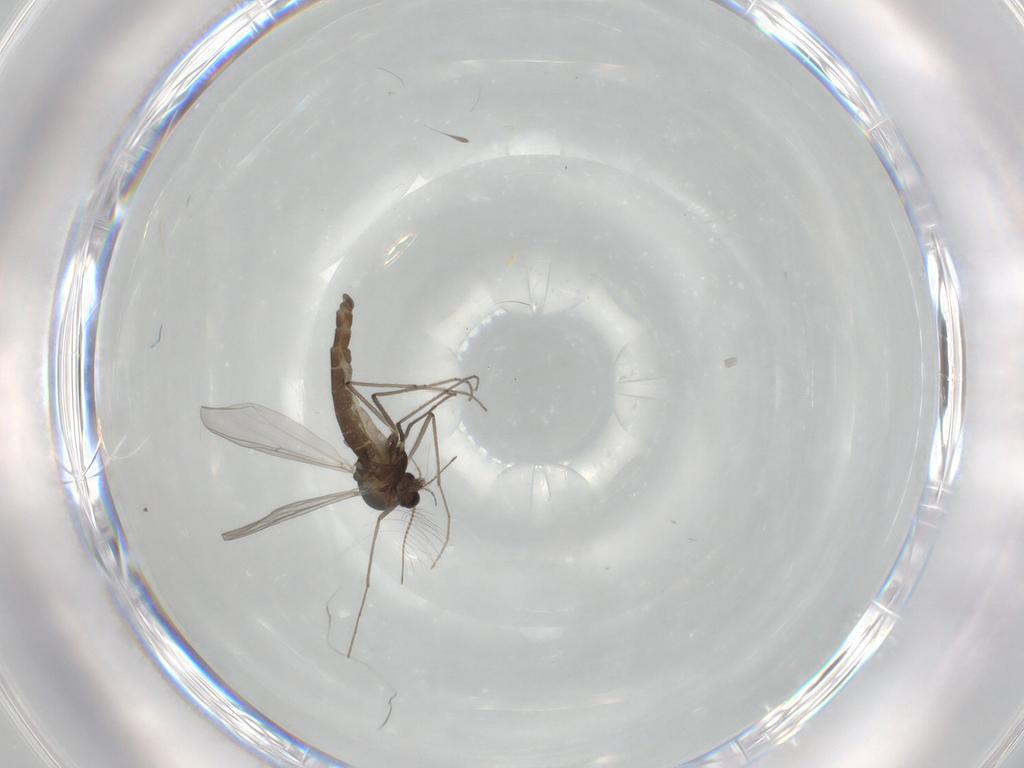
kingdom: Animalia
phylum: Arthropoda
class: Insecta
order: Diptera
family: Chironomidae
